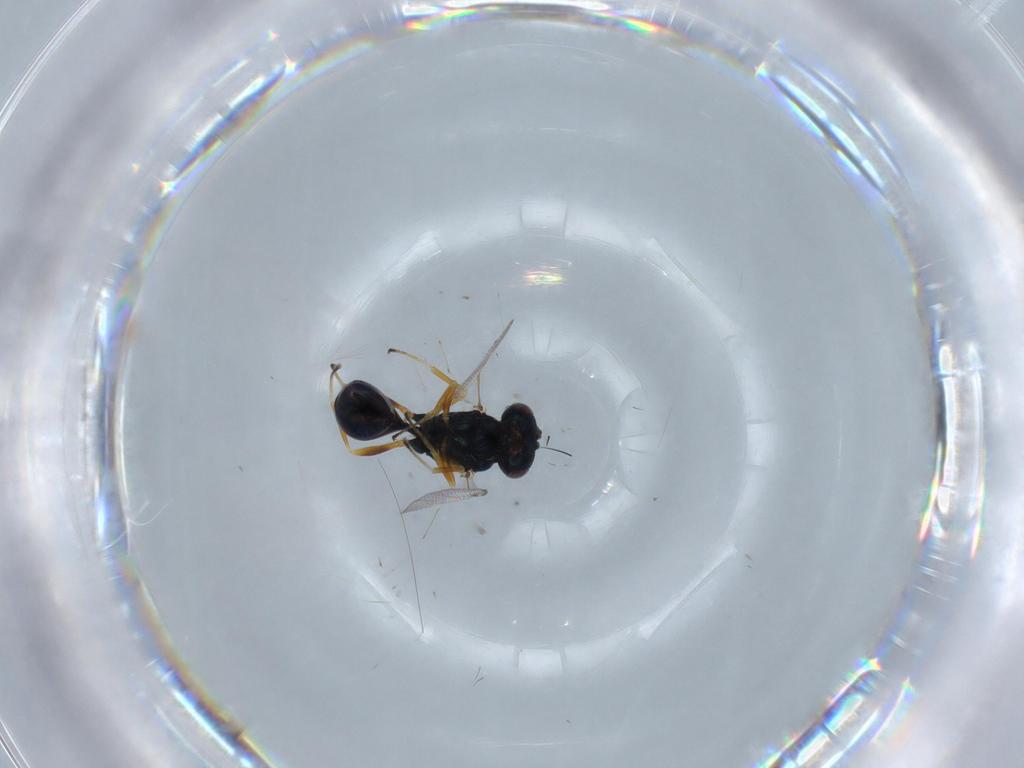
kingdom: Animalia
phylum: Arthropoda
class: Insecta
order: Hymenoptera
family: Pteromalidae
